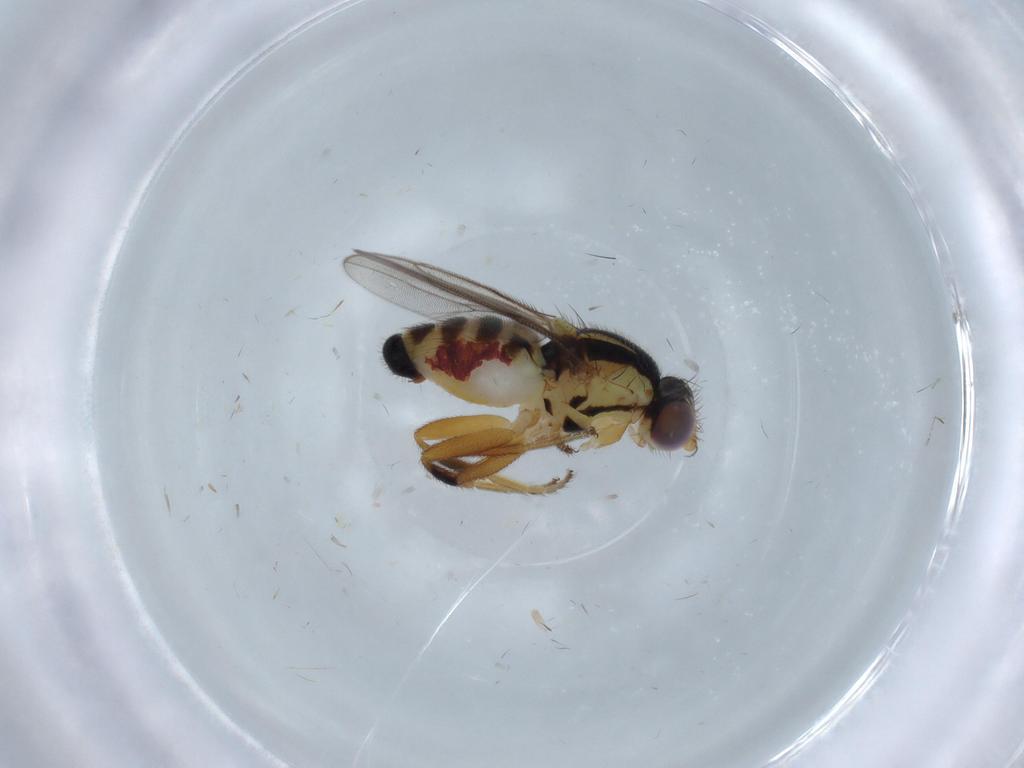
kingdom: Animalia
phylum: Arthropoda
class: Insecta
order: Diptera
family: Chloropidae
